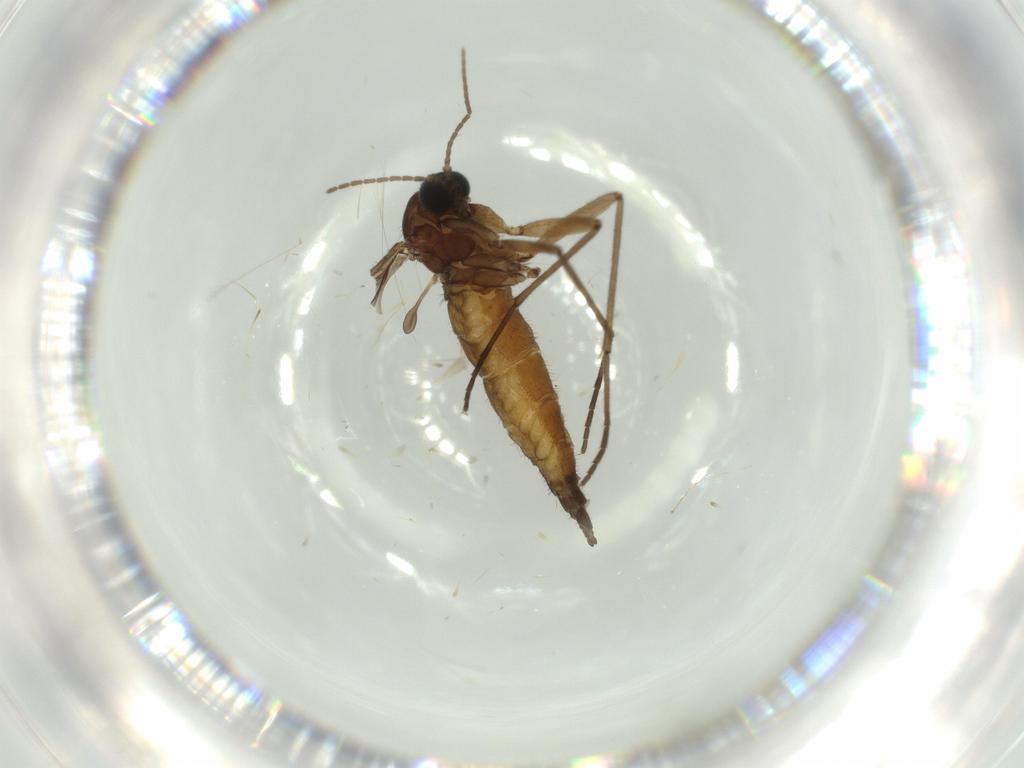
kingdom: Animalia
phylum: Arthropoda
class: Insecta
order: Diptera
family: Sciaridae
